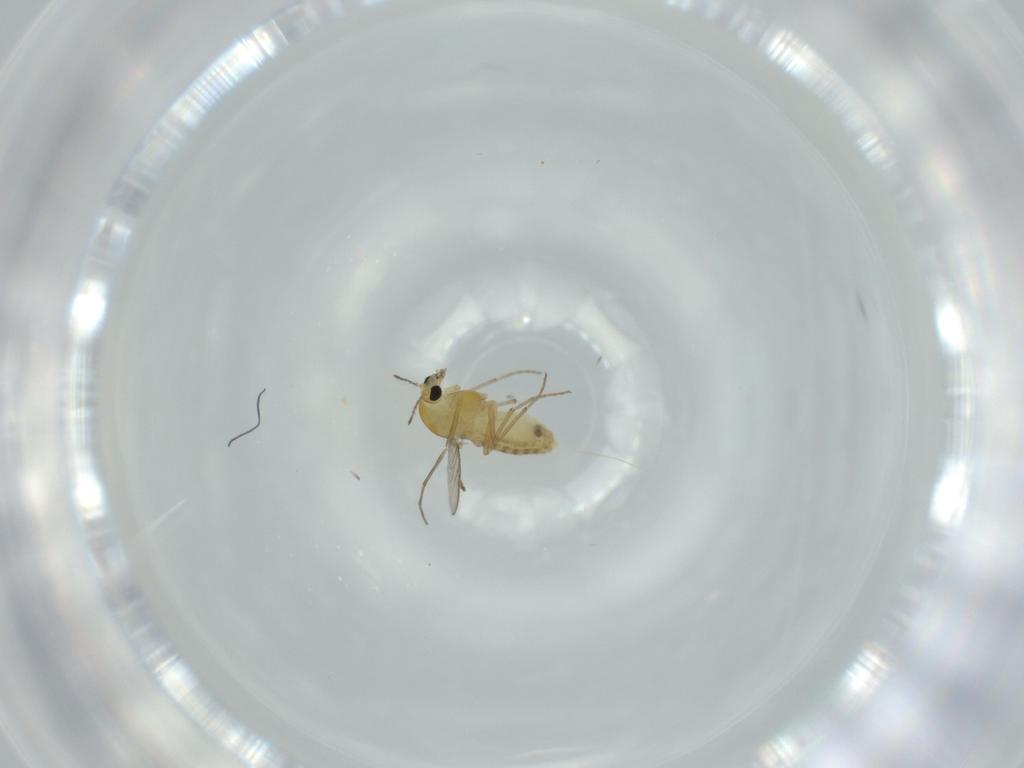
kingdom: Animalia
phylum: Arthropoda
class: Insecta
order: Diptera
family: Chironomidae
